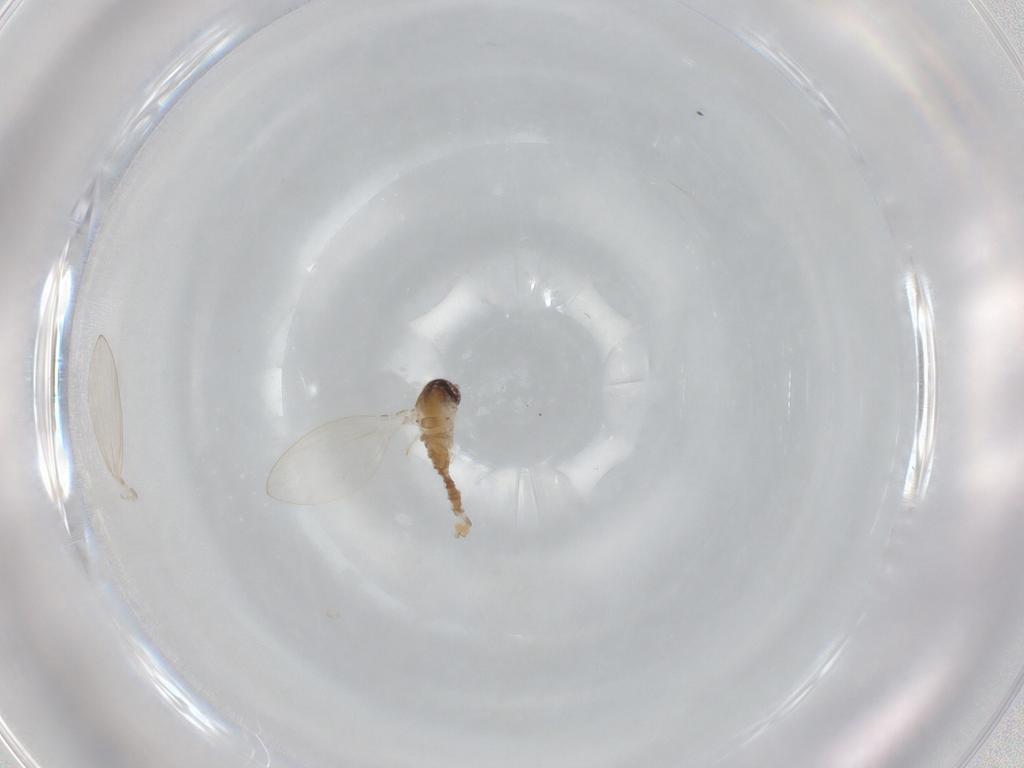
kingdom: Animalia
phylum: Arthropoda
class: Insecta
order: Diptera
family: Psychodidae
